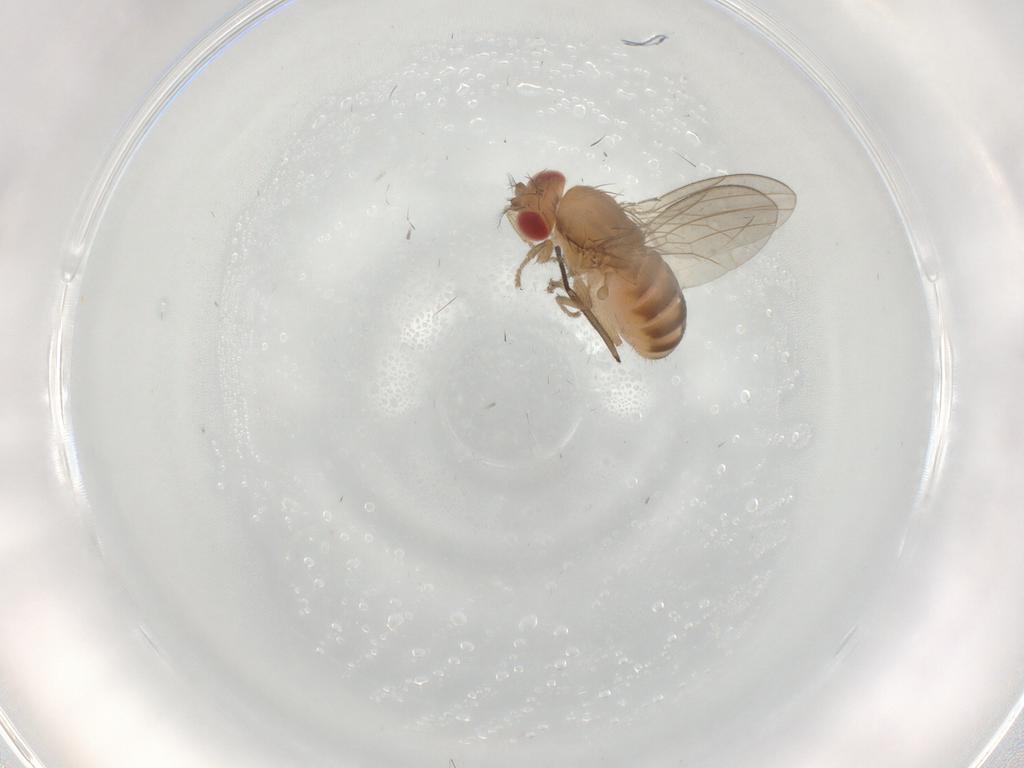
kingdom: Animalia
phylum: Arthropoda
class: Insecta
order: Diptera
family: Drosophilidae
